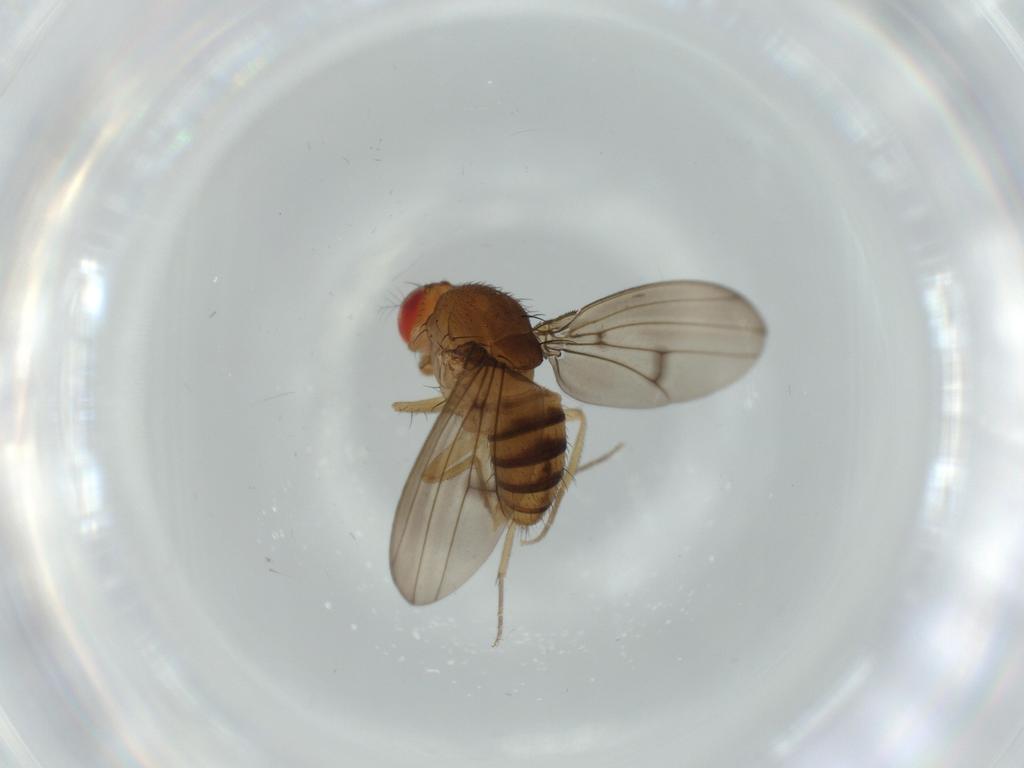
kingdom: Animalia
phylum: Arthropoda
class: Insecta
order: Diptera
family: Drosophilidae
